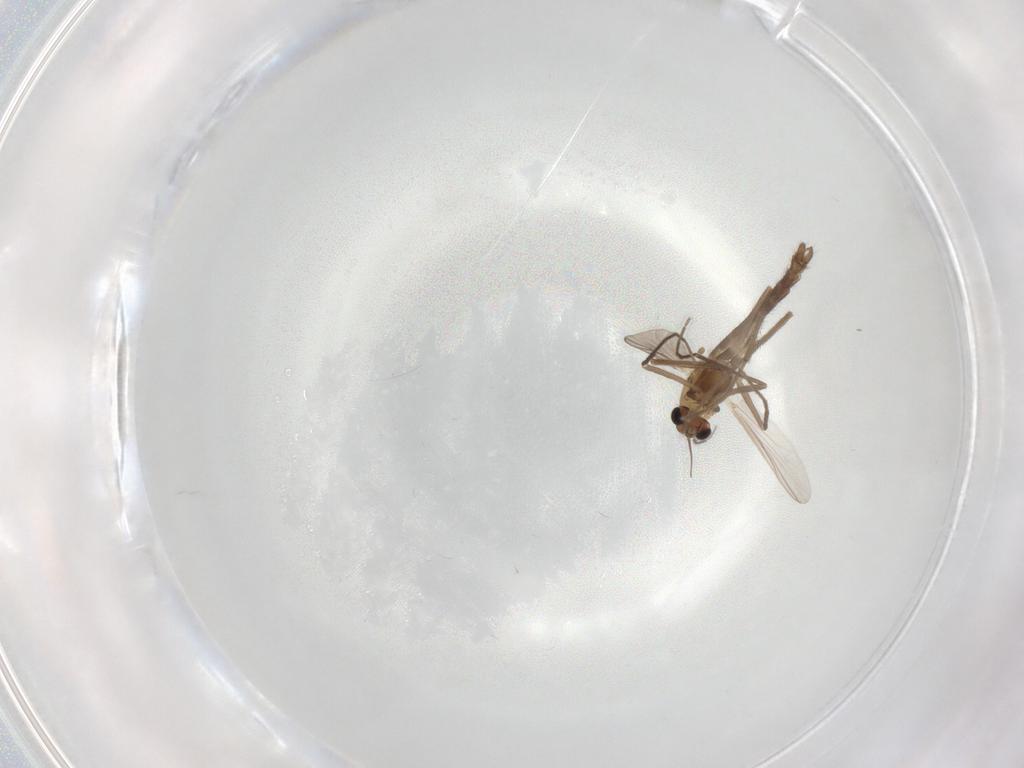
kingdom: Animalia
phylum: Arthropoda
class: Insecta
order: Diptera
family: Chironomidae
